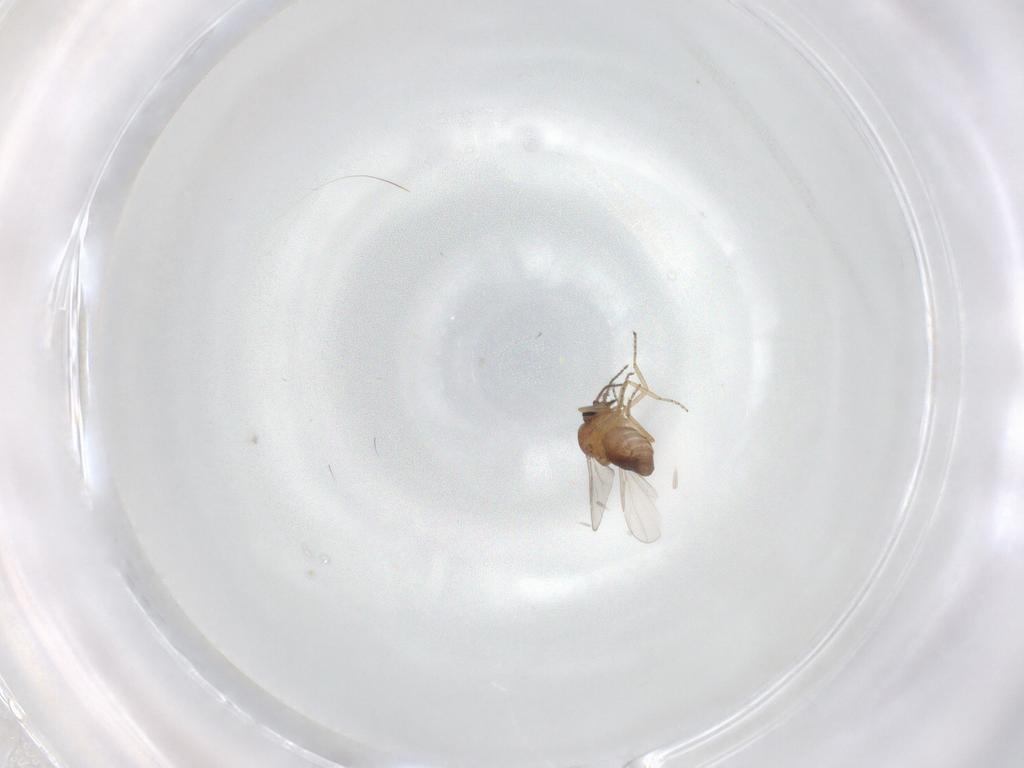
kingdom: Animalia
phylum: Arthropoda
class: Insecta
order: Diptera
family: Ceratopogonidae
